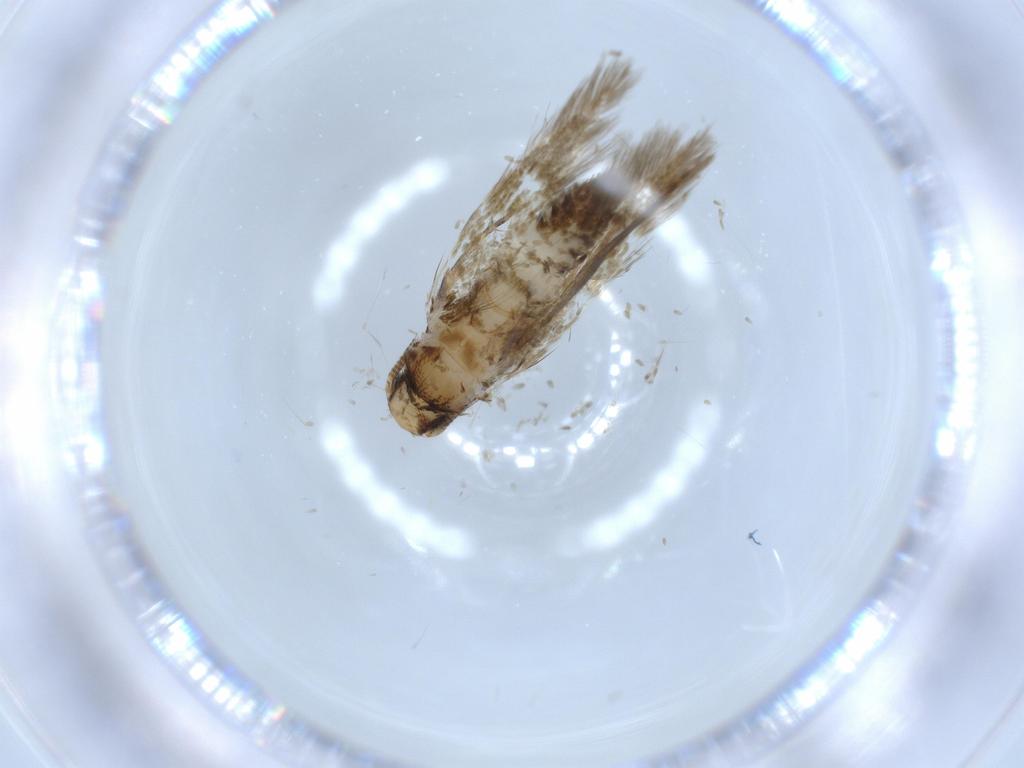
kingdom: Animalia
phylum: Arthropoda
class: Insecta
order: Lepidoptera
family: Tineidae
